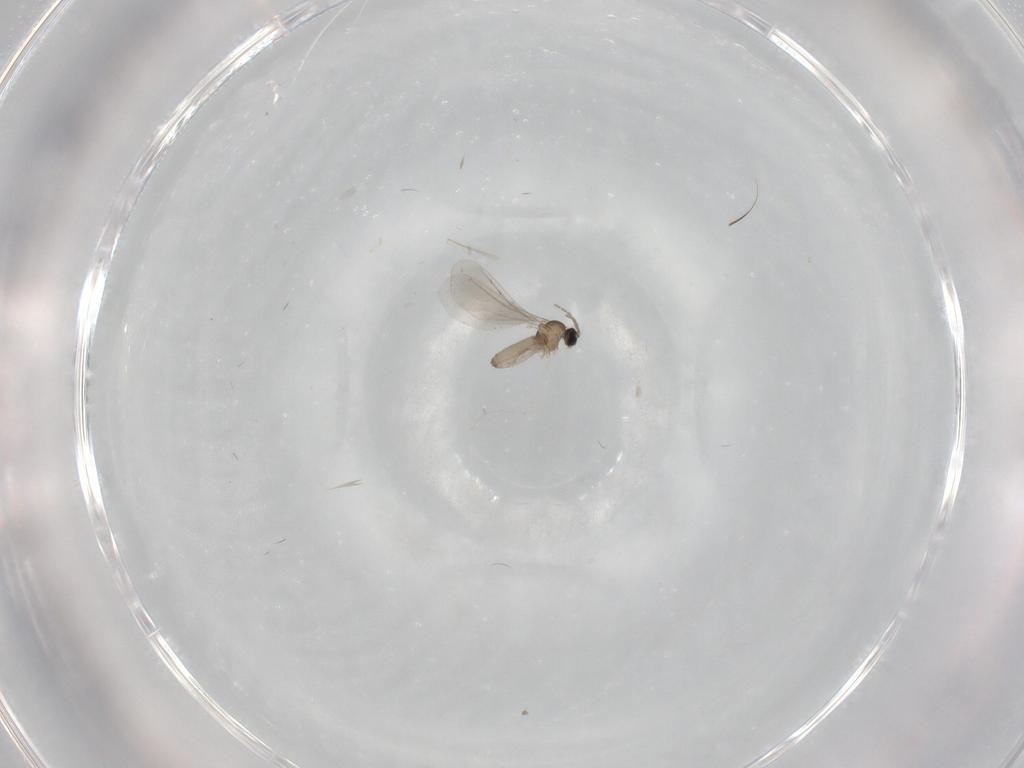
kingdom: Animalia
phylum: Arthropoda
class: Insecta
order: Diptera
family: Cecidomyiidae
